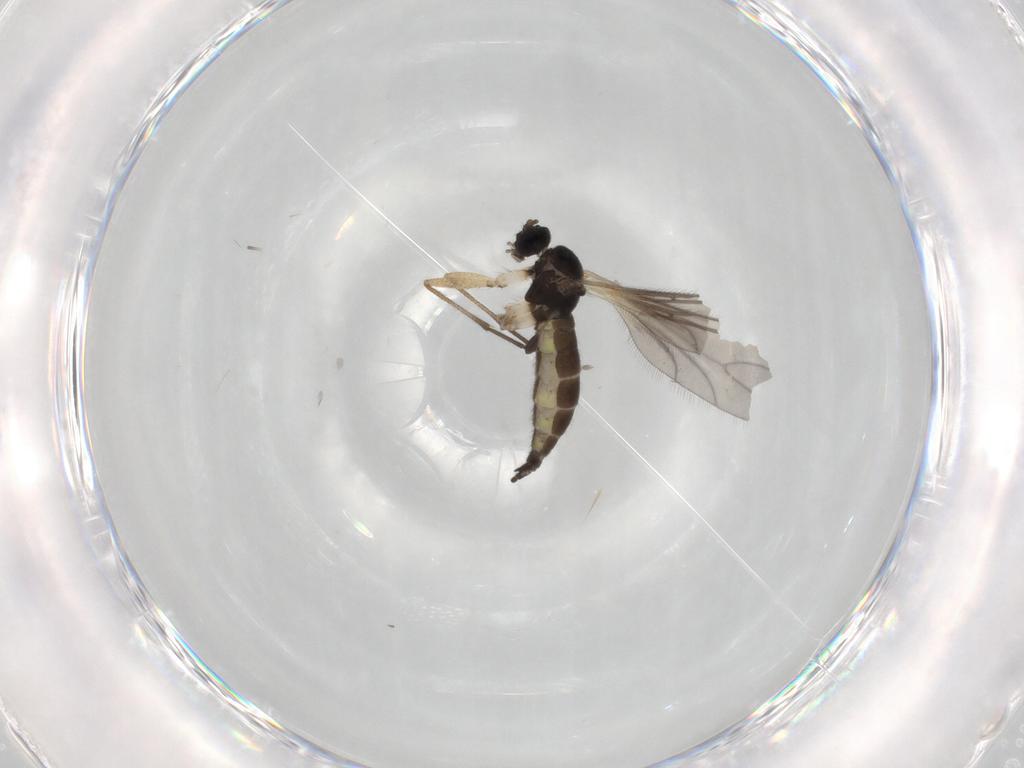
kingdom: Animalia
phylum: Arthropoda
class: Insecta
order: Diptera
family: Sciaridae
